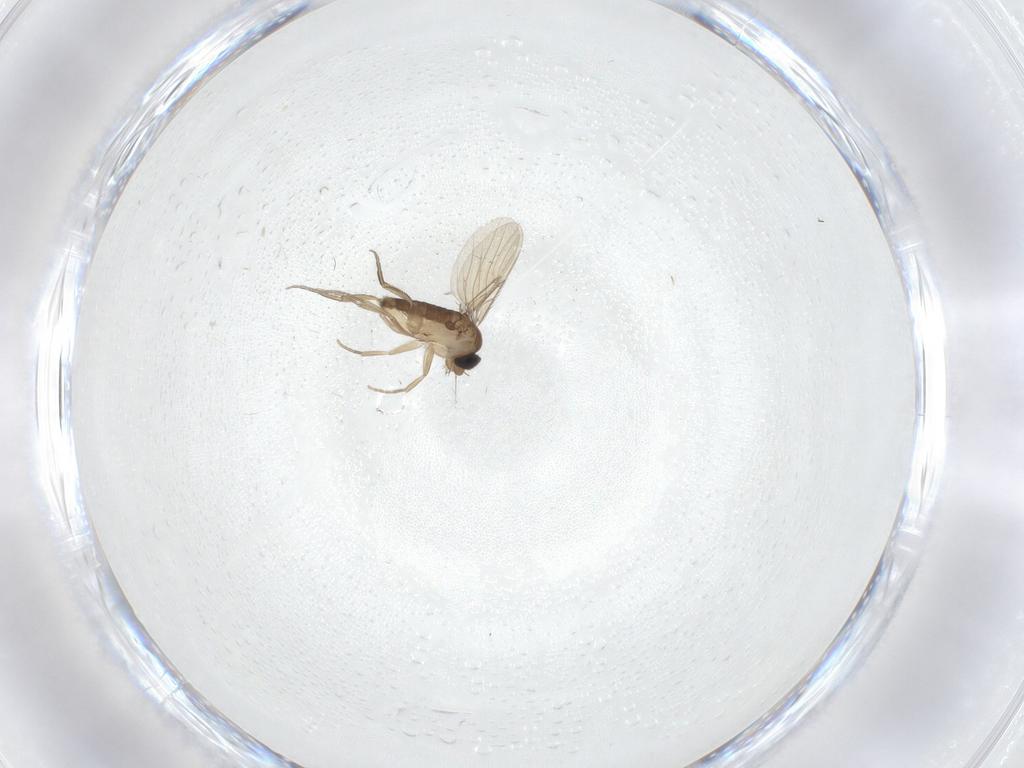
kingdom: Animalia
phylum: Arthropoda
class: Insecta
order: Diptera
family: Phoridae
